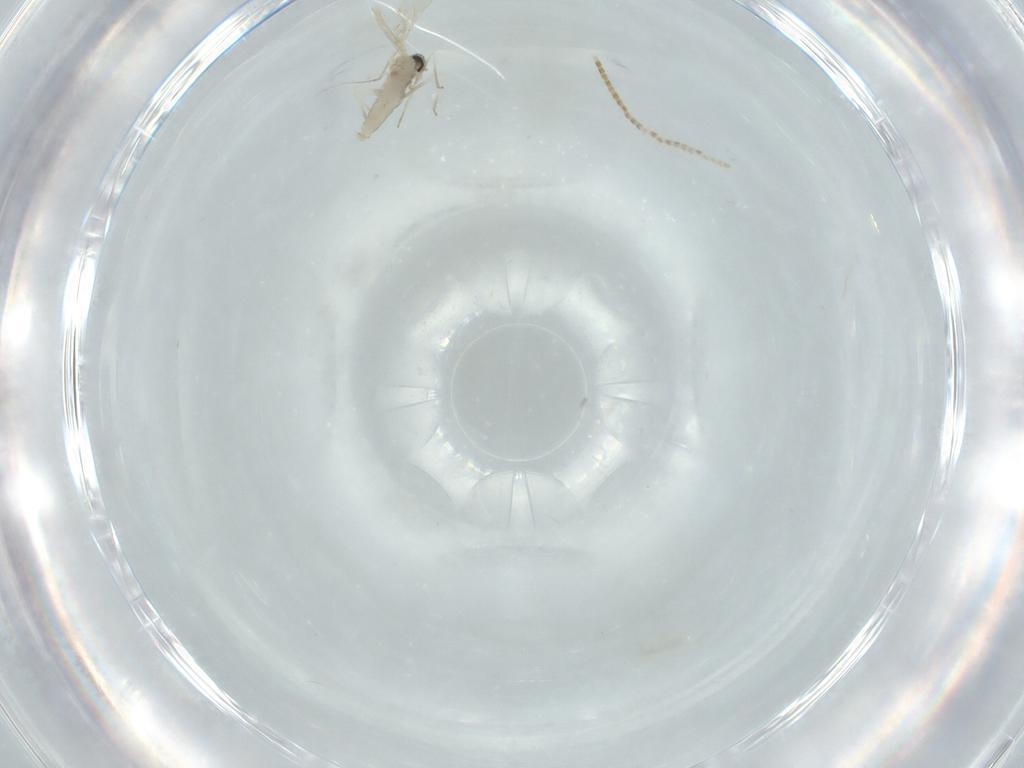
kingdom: Animalia
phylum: Arthropoda
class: Insecta
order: Diptera
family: Cecidomyiidae
